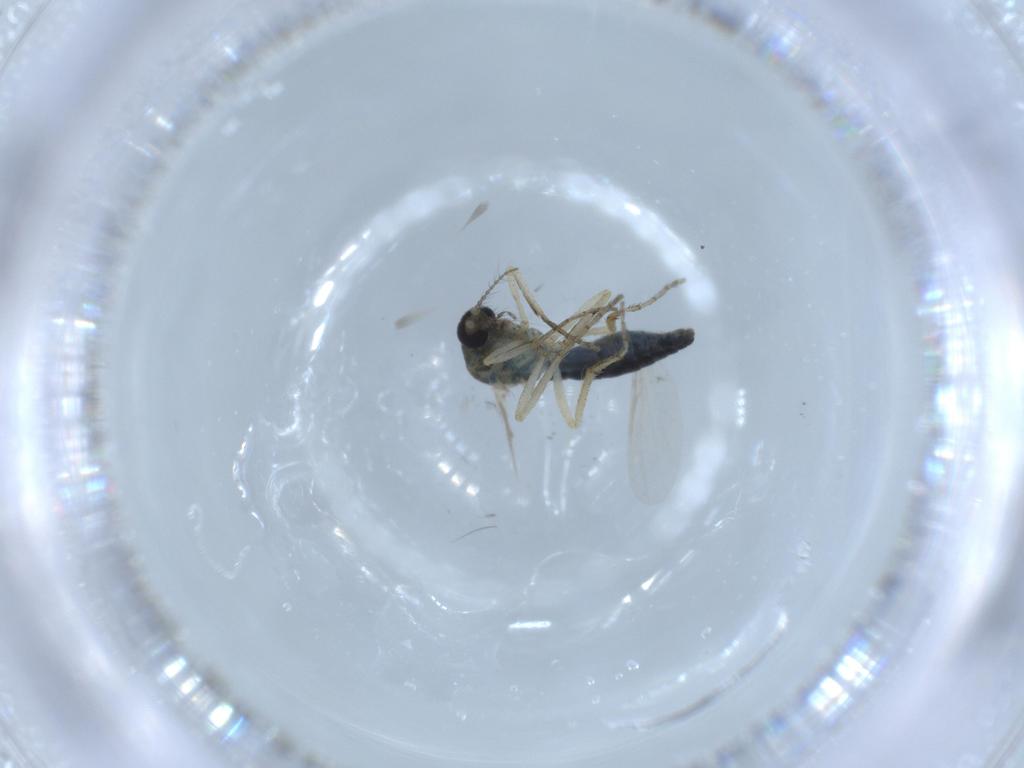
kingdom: Animalia
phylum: Arthropoda
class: Insecta
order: Diptera
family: Ceratopogonidae
